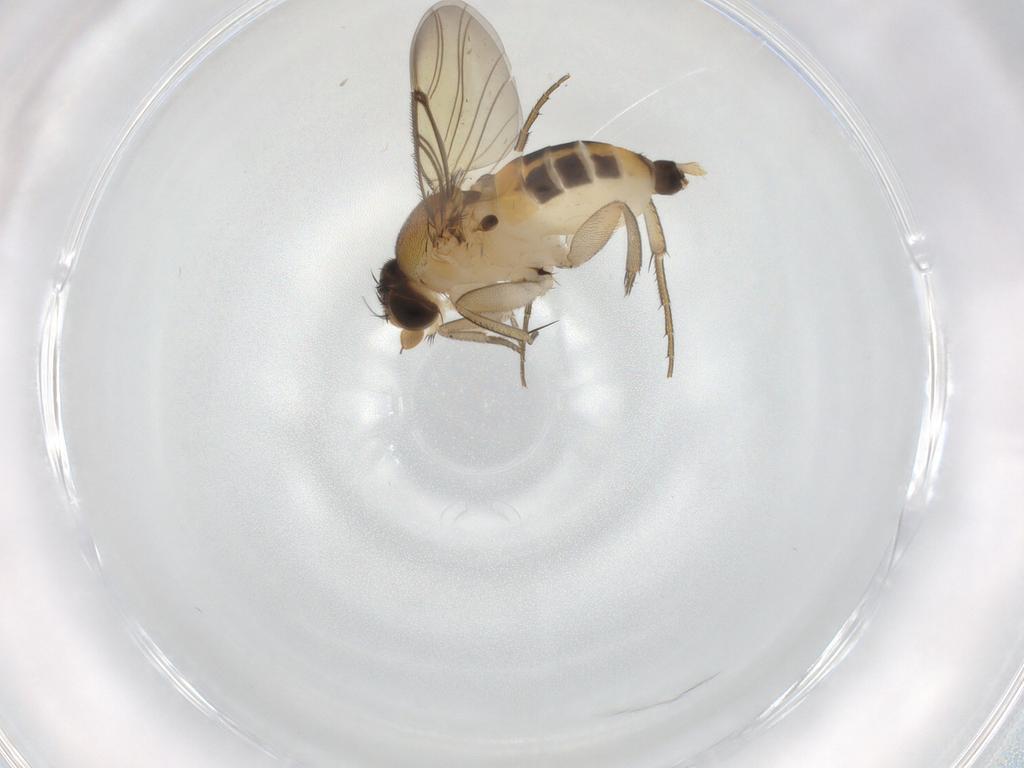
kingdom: Animalia
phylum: Arthropoda
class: Insecta
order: Diptera
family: Phoridae
